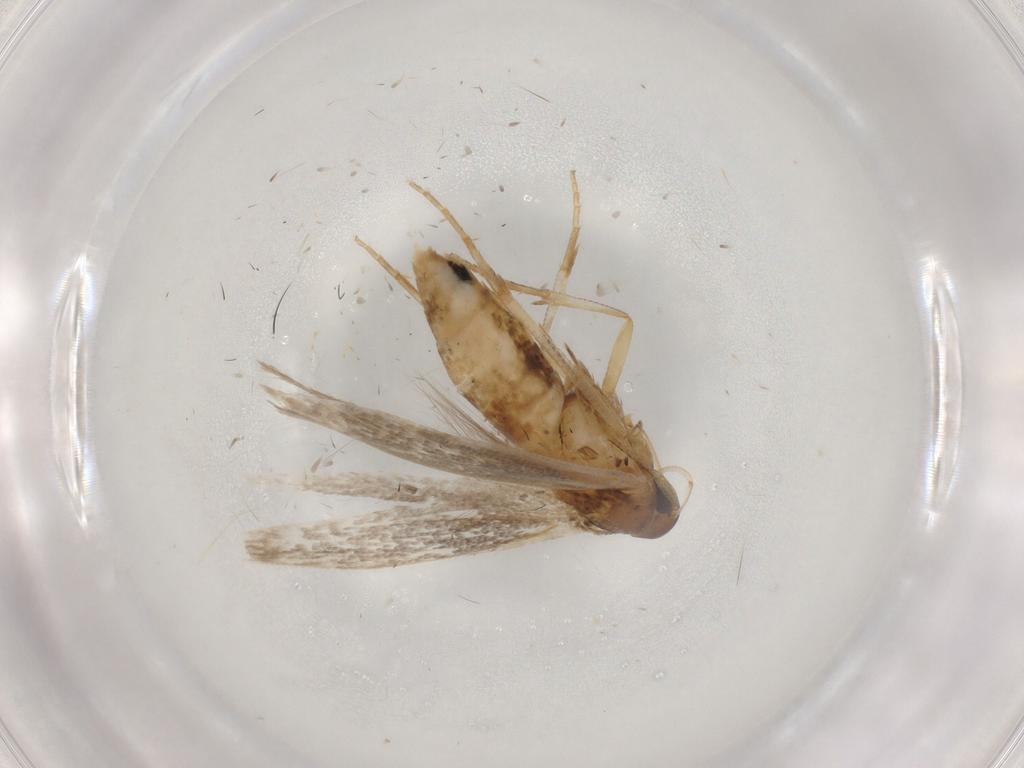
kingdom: Animalia
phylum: Arthropoda
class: Insecta
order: Lepidoptera
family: Cosmopterigidae
